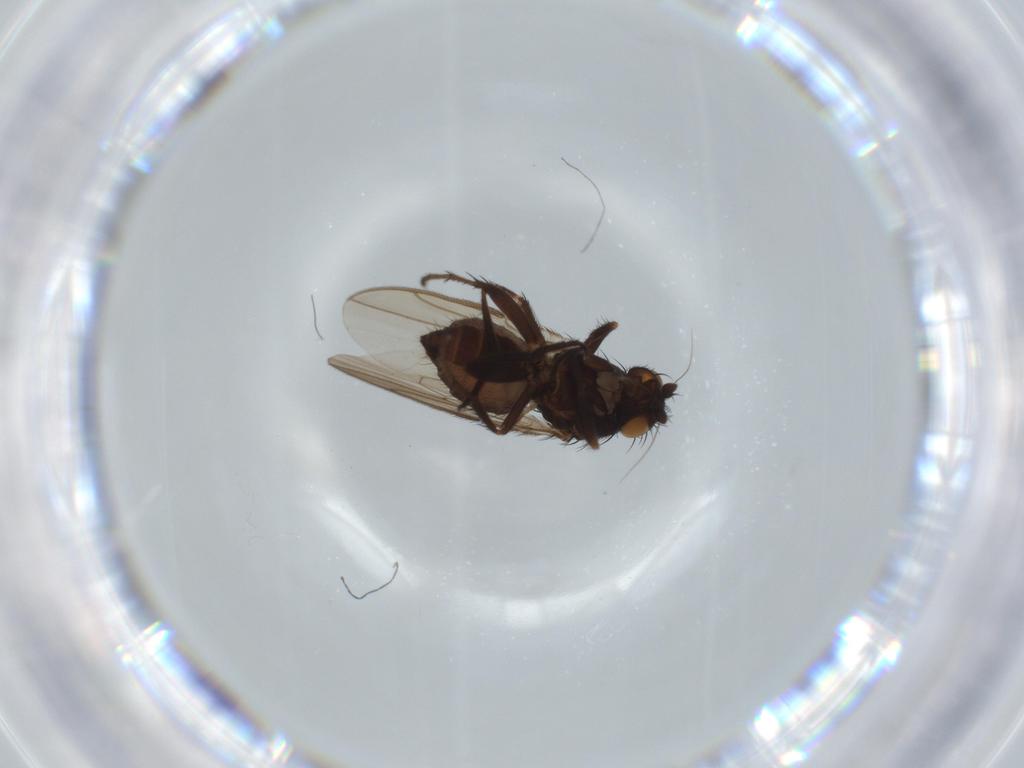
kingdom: Animalia
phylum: Arthropoda
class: Insecta
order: Diptera
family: Sphaeroceridae
